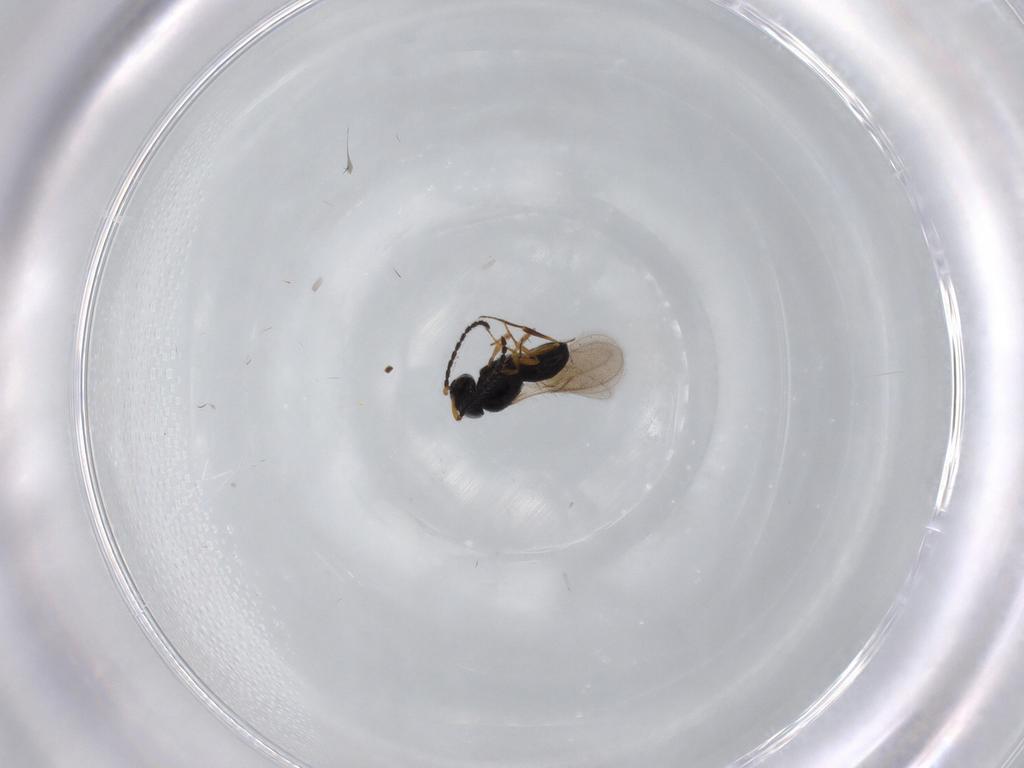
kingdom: Animalia
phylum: Arthropoda
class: Insecta
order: Hymenoptera
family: Scelionidae
